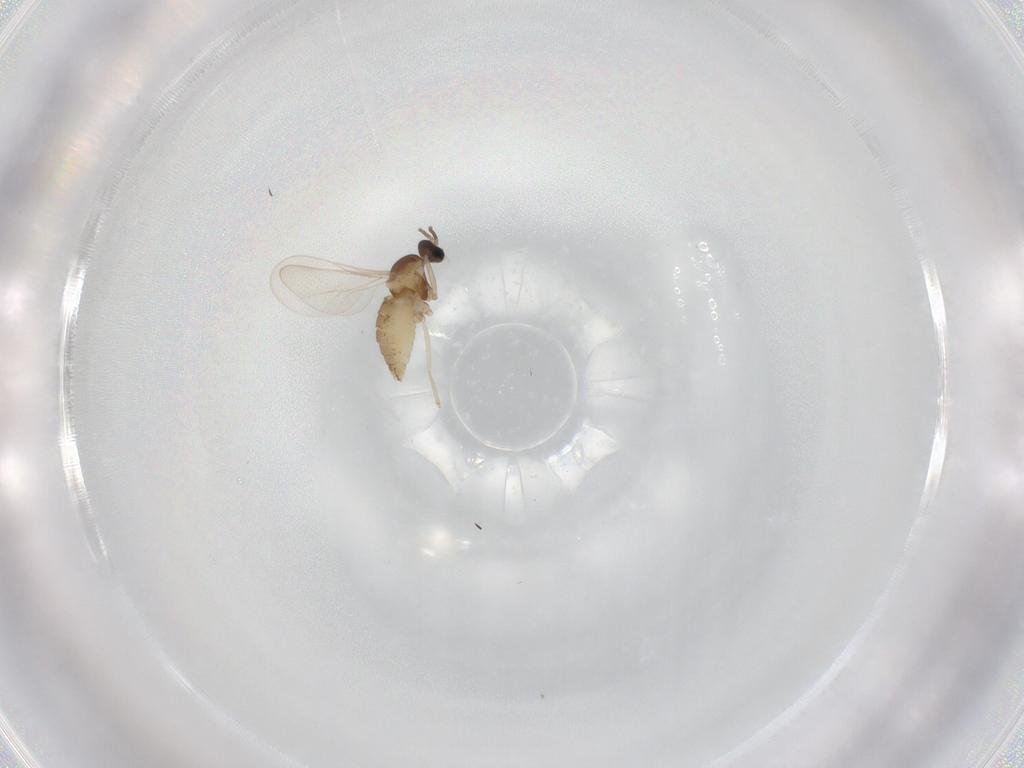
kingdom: Animalia
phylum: Arthropoda
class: Insecta
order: Diptera
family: Cecidomyiidae
